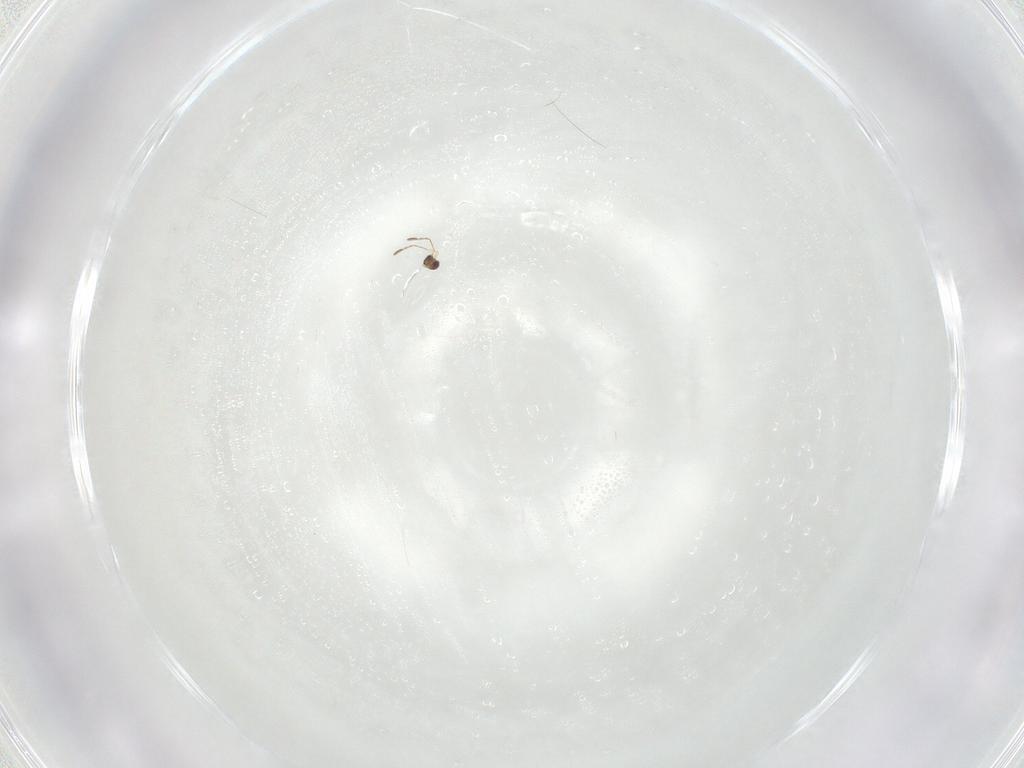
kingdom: Animalia
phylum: Arthropoda
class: Insecta
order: Hymenoptera
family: Mymaridae
